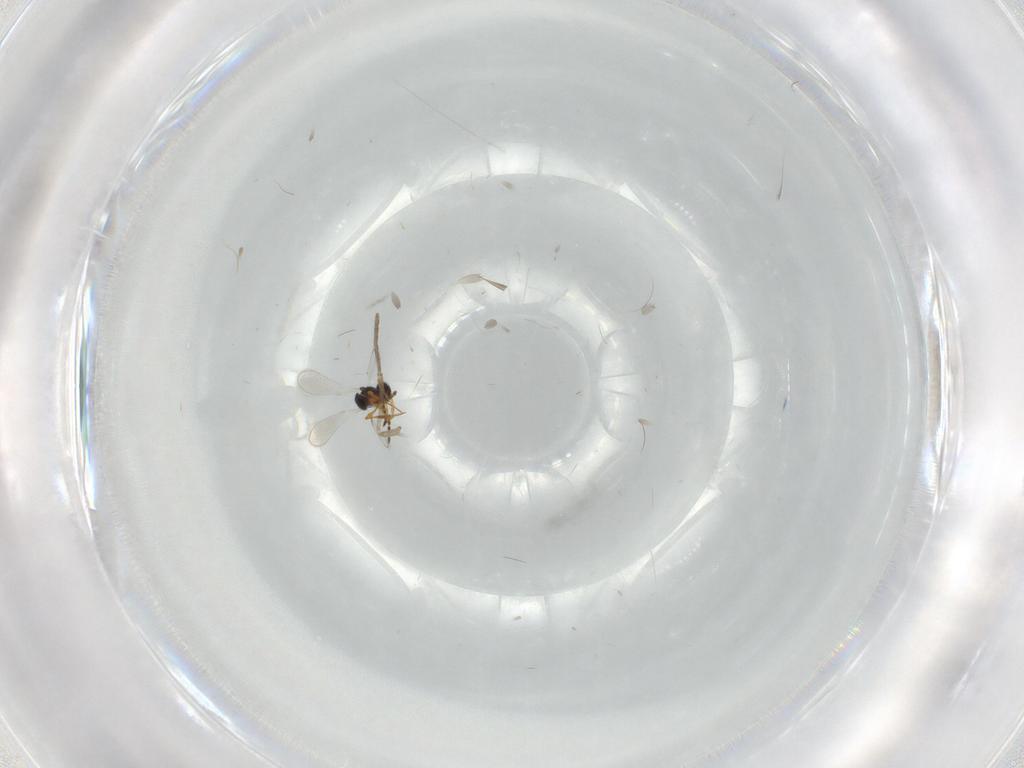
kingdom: Animalia
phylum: Arthropoda
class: Insecta
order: Hymenoptera
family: Platygastridae
